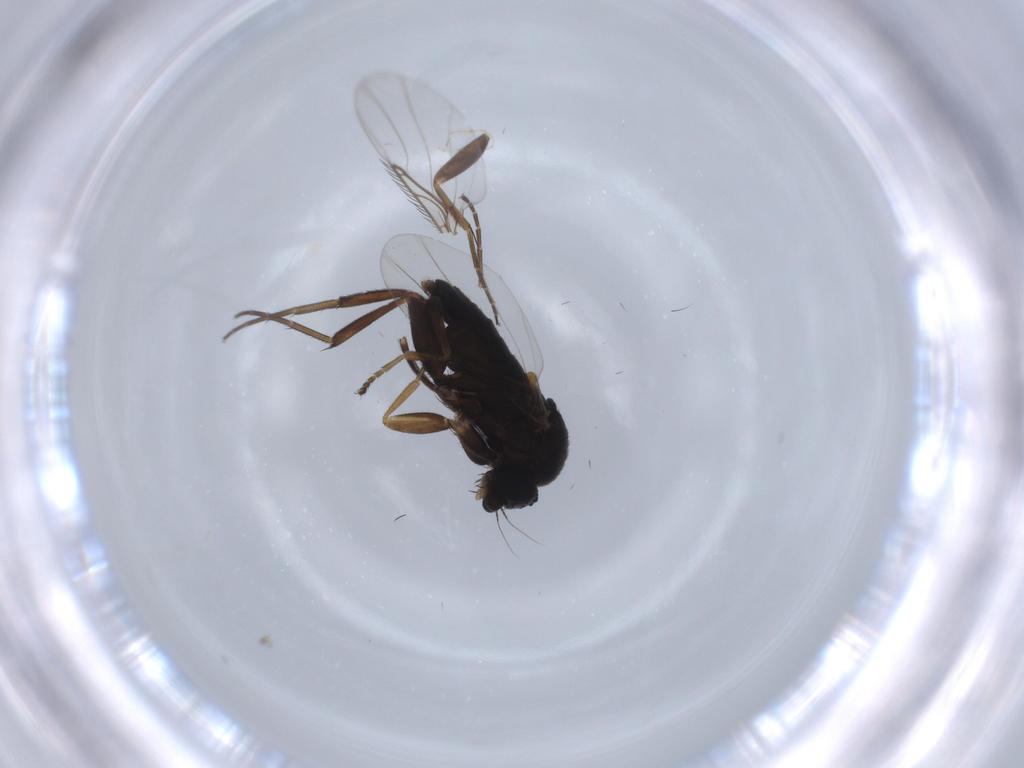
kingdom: Animalia
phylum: Arthropoda
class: Insecta
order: Diptera
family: Phoridae
